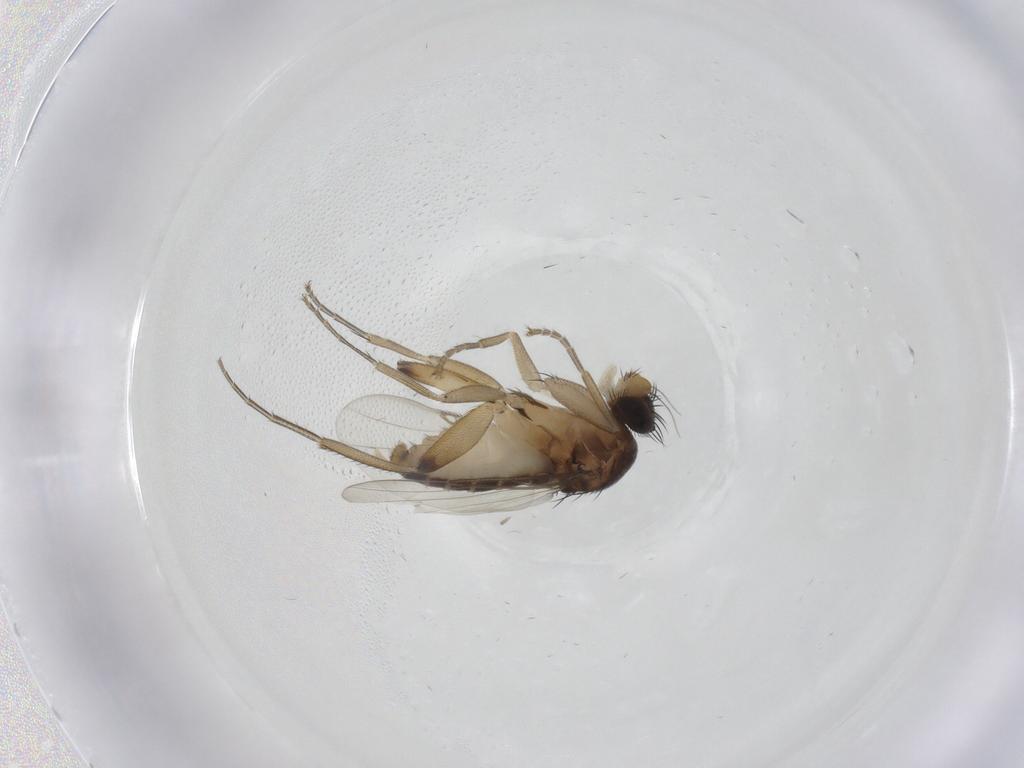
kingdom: Animalia
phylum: Arthropoda
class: Insecta
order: Diptera
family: Phoridae
